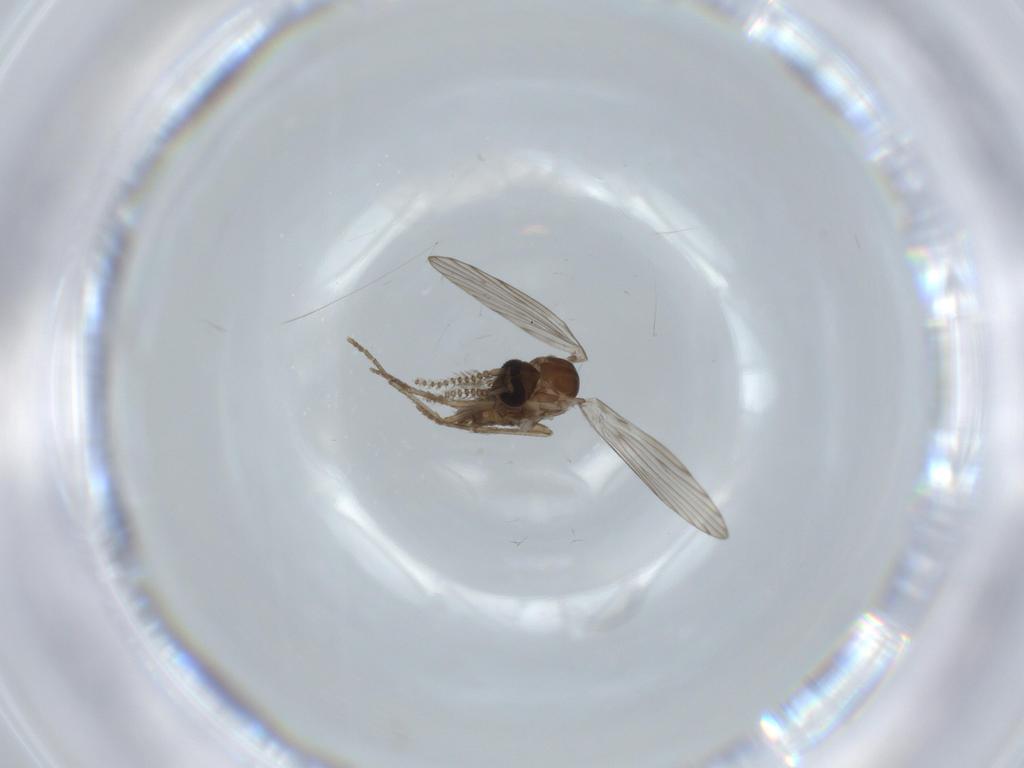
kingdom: Animalia
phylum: Arthropoda
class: Insecta
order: Diptera
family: Psychodidae
